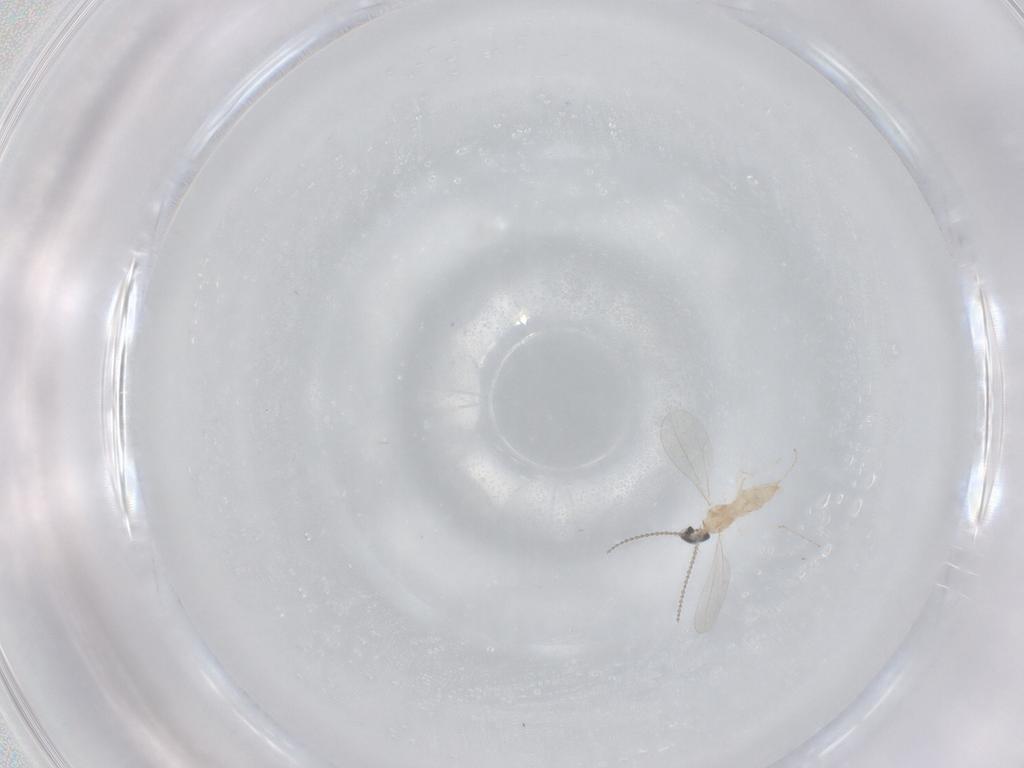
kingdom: Animalia
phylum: Arthropoda
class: Insecta
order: Diptera
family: Cecidomyiidae
